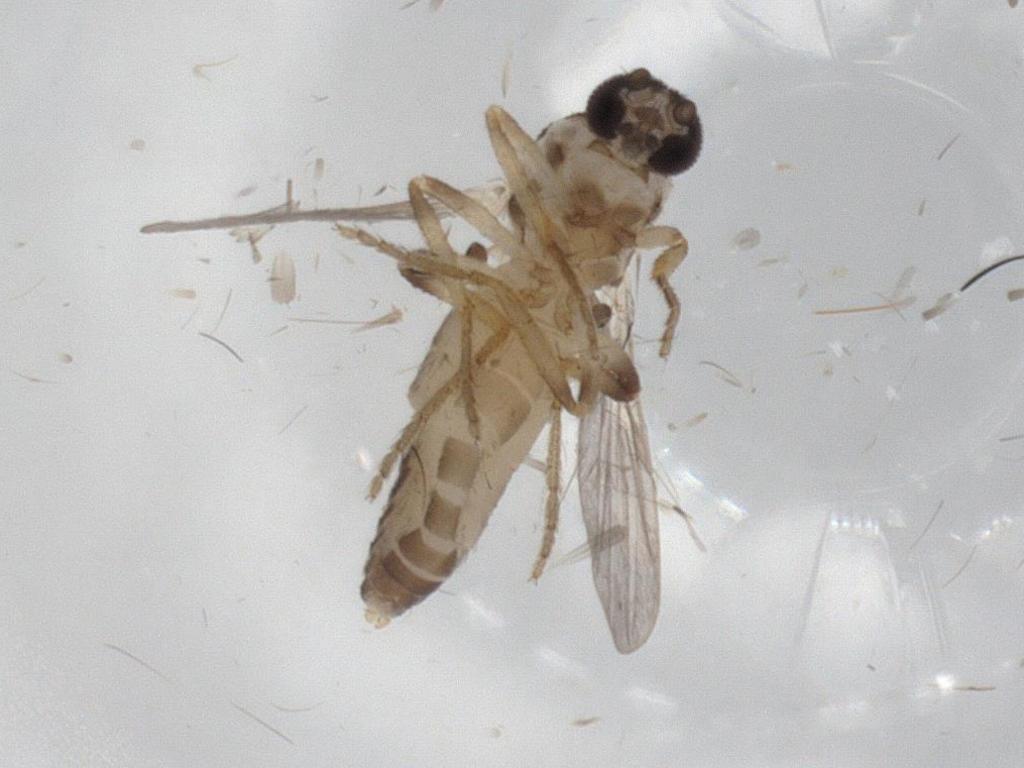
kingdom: Animalia
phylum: Arthropoda
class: Insecta
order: Diptera
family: Ceratopogonidae
